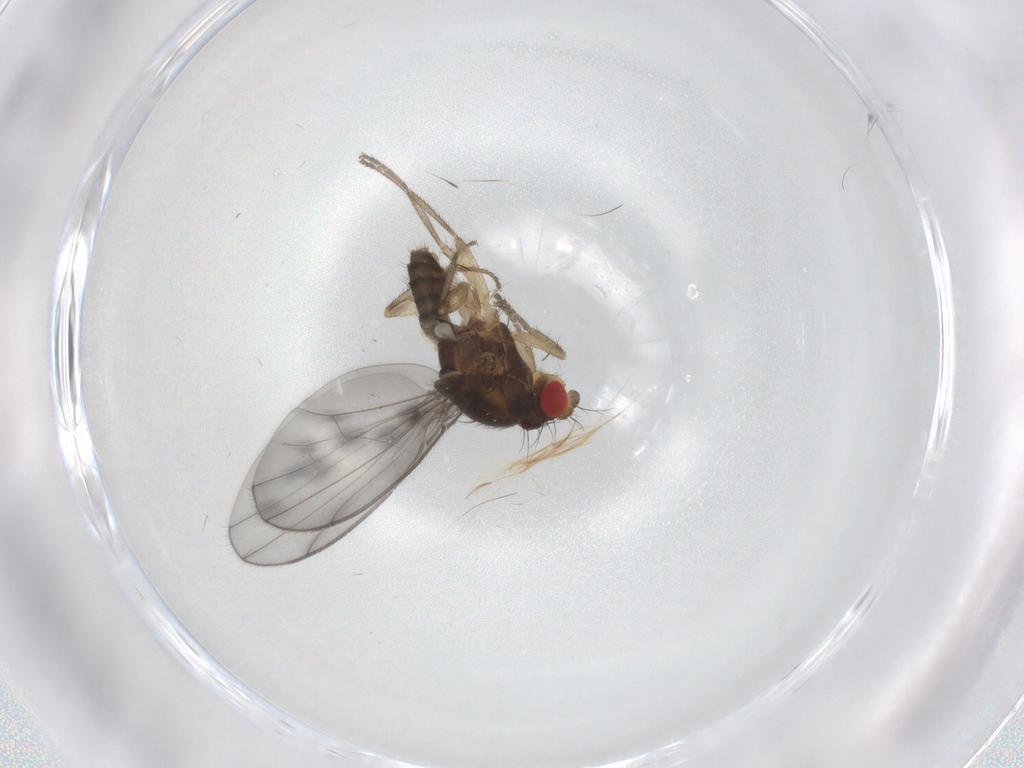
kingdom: Animalia
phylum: Arthropoda
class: Insecta
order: Diptera
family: Drosophilidae
